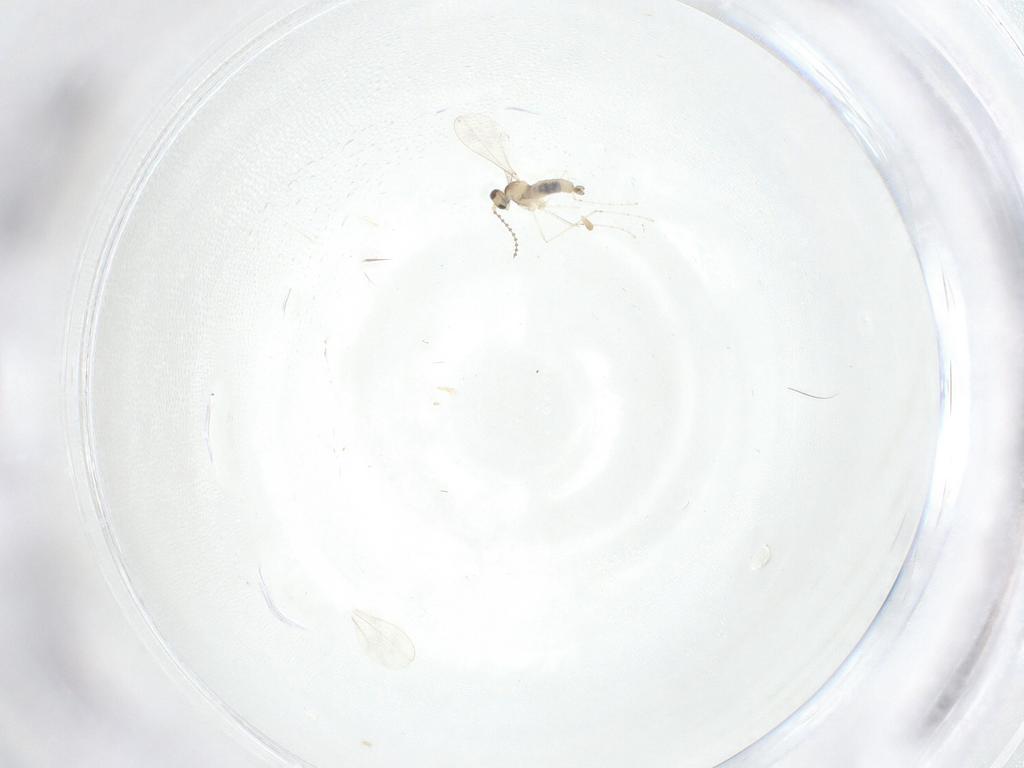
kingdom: Animalia
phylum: Arthropoda
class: Insecta
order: Diptera
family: Cecidomyiidae
